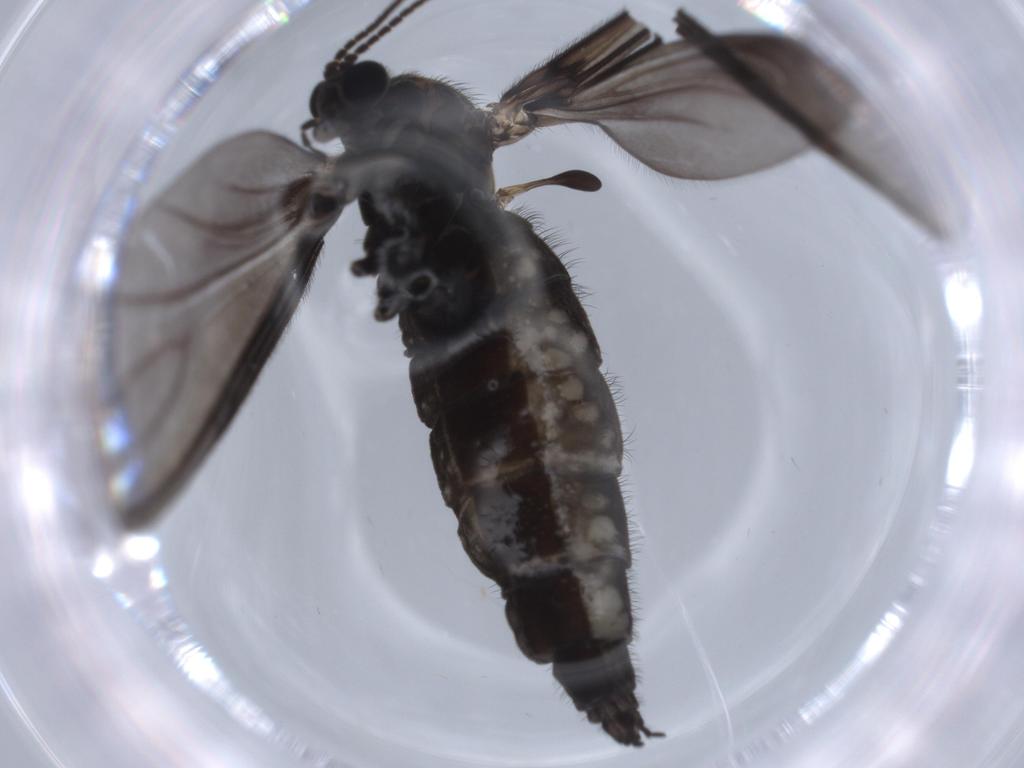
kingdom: Animalia
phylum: Arthropoda
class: Insecta
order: Diptera
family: Sciaridae
